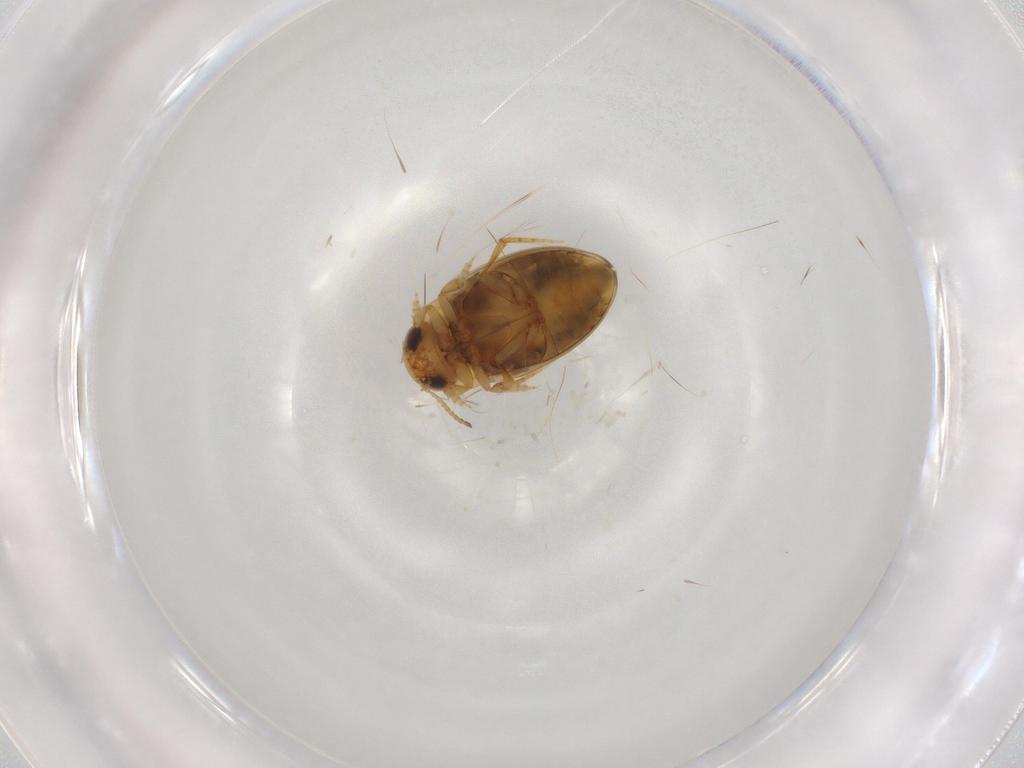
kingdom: Animalia
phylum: Arthropoda
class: Insecta
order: Coleoptera
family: Dytiscidae
